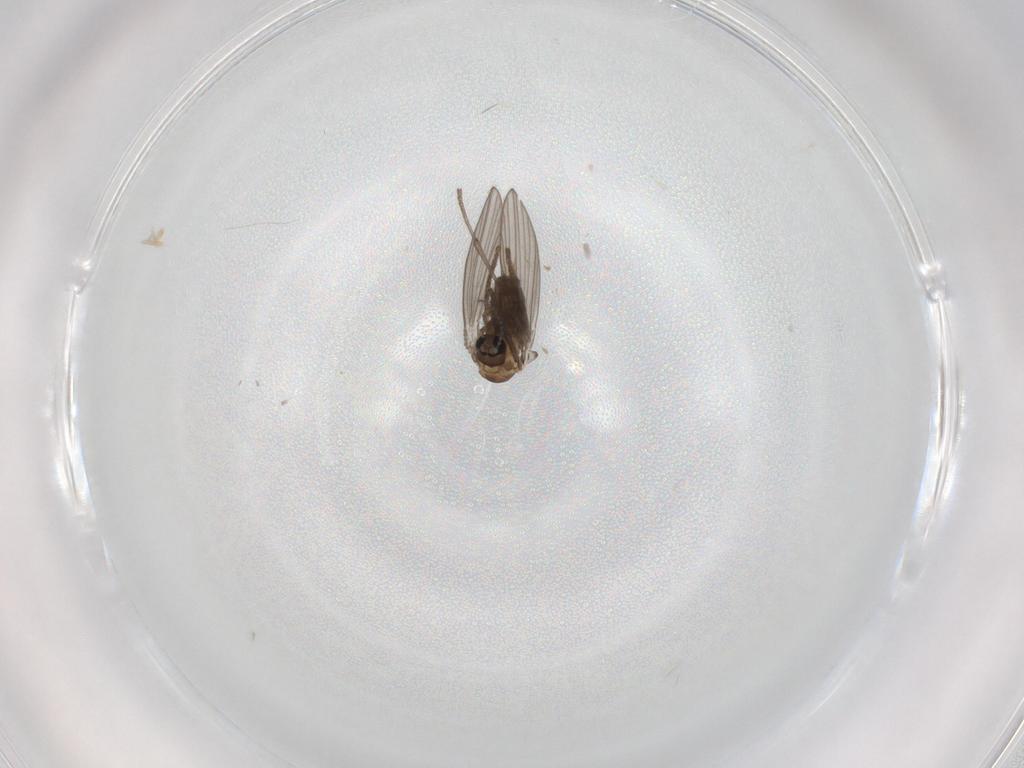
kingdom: Animalia
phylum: Arthropoda
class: Insecta
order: Diptera
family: Psychodidae
